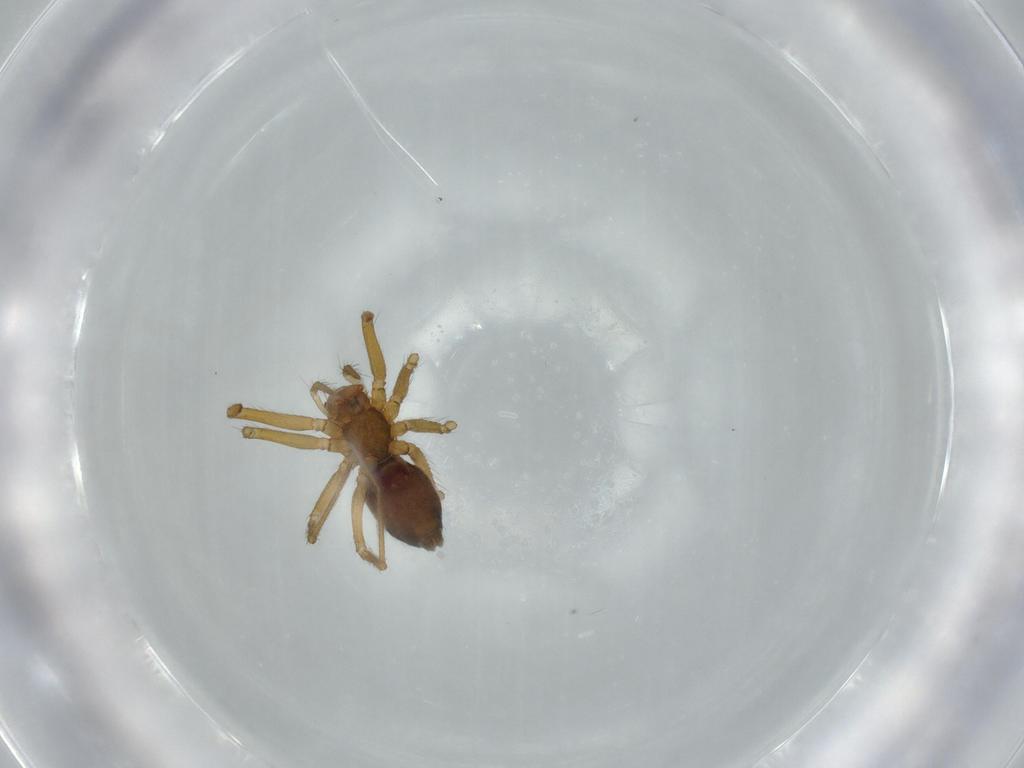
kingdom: Animalia
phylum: Arthropoda
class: Arachnida
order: Araneae
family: Linyphiidae
